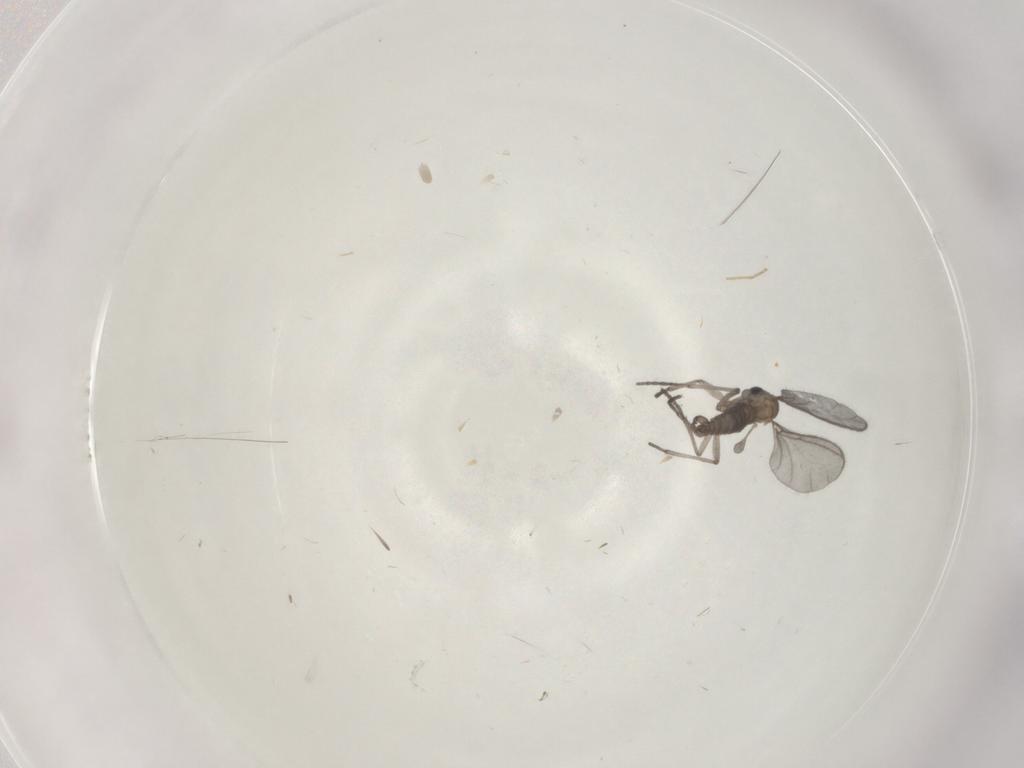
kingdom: Animalia
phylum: Arthropoda
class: Insecta
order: Diptera
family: Sciaridae
